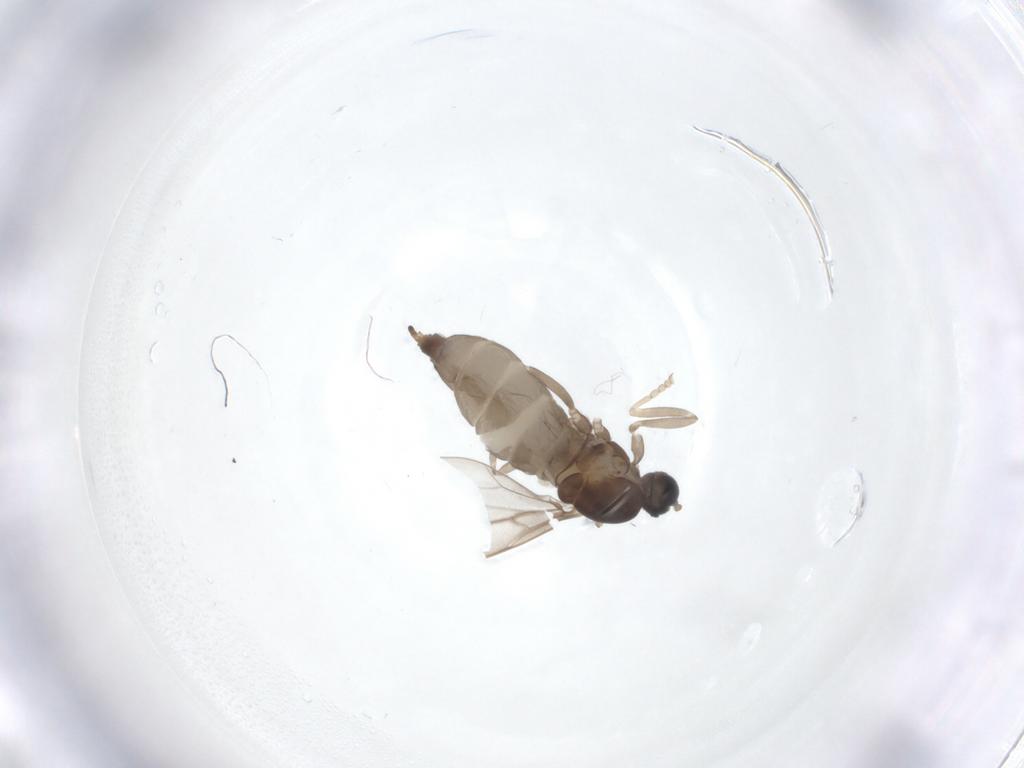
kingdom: Animalia
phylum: Arthropoda
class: Insecta
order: Diptera
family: Cecidomyiidae
